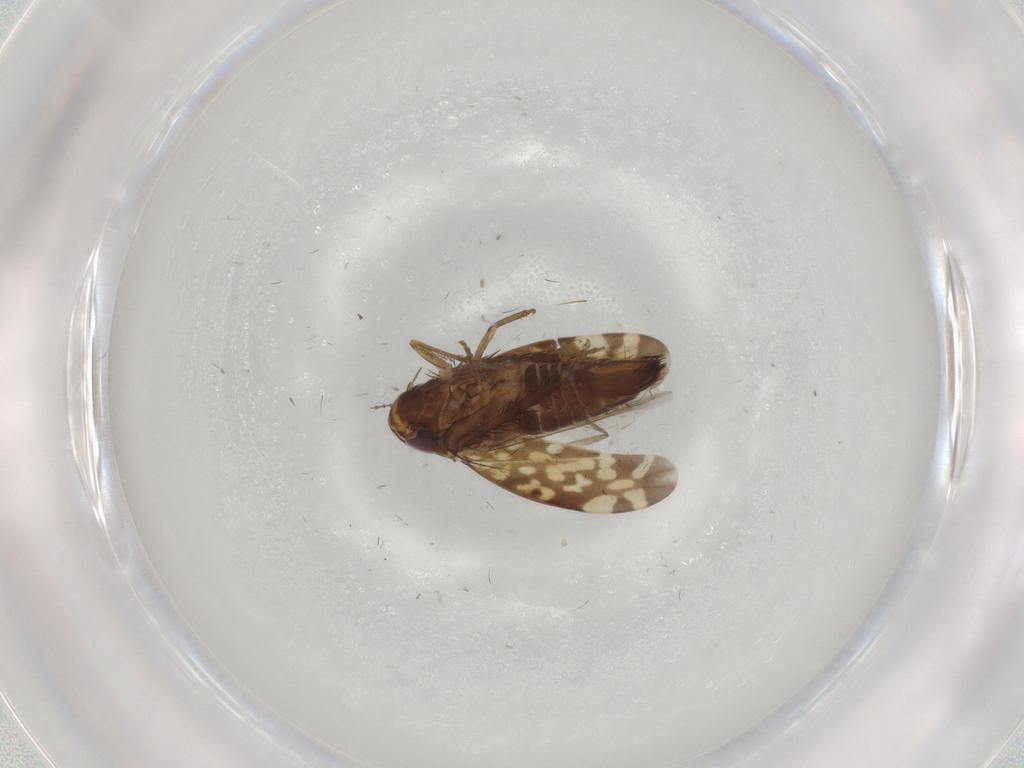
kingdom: Animalia
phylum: Arthropoda
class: Insecta
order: Hemiptera
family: Cicadellidae
